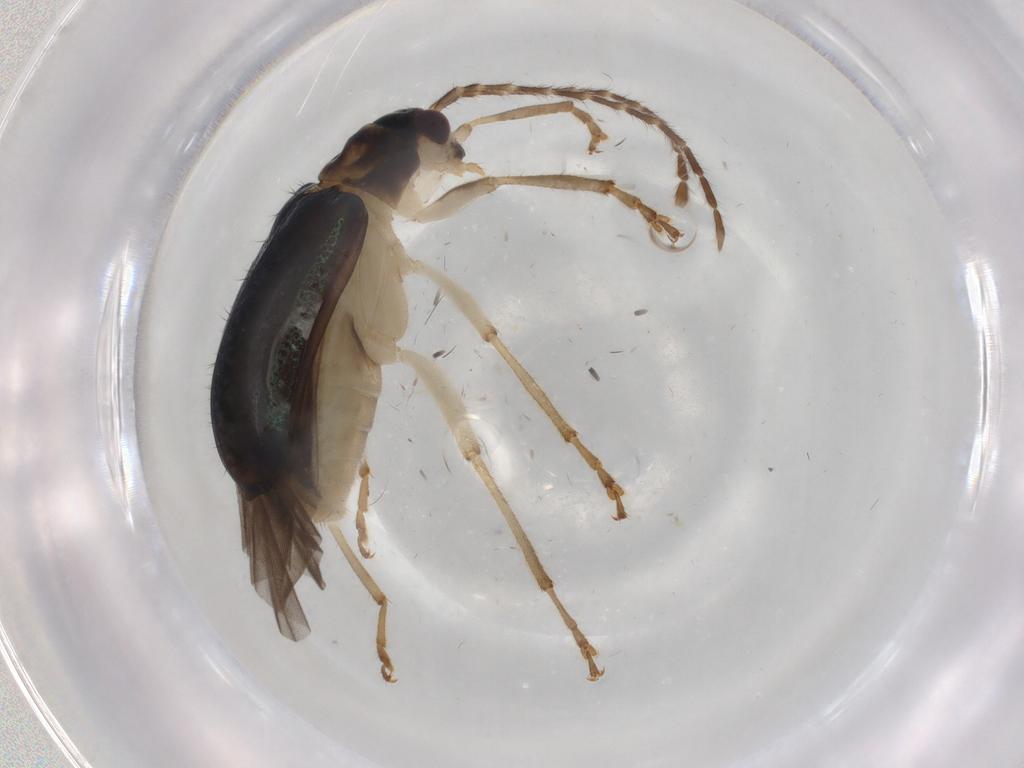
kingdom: Animalia
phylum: Arthropoda
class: Insecta
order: Coleoptera
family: Chrysomelidae
